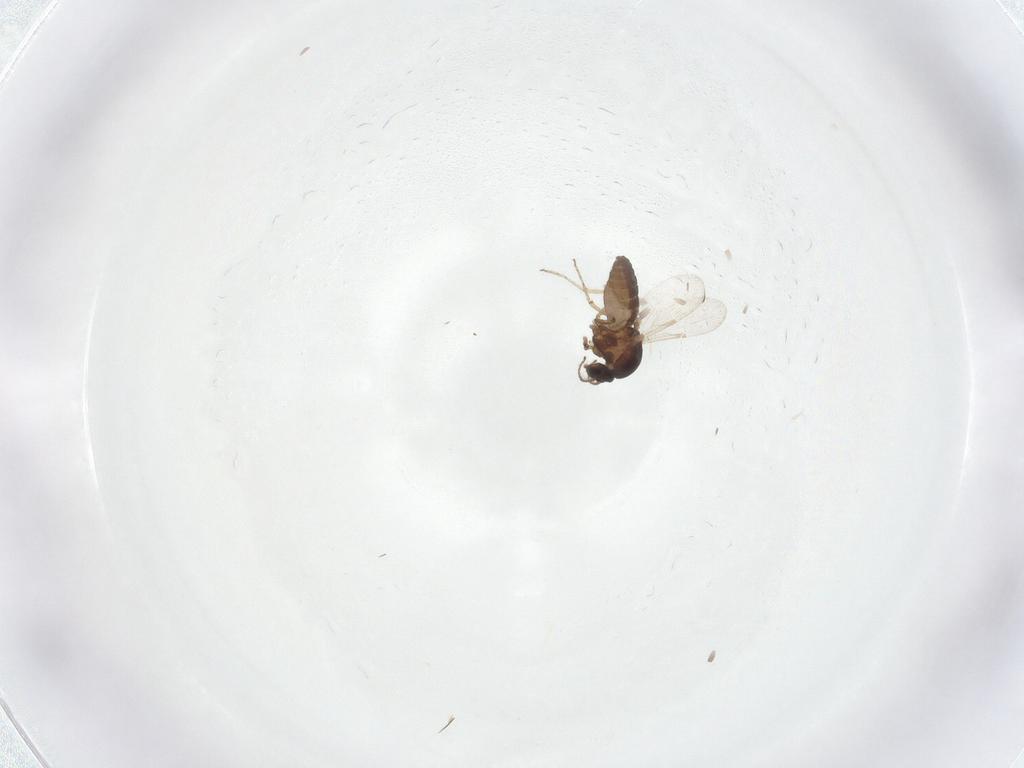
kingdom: Animalia
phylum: Arthropoda
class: Insecta
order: Diptera
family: Ceratopogonidae
